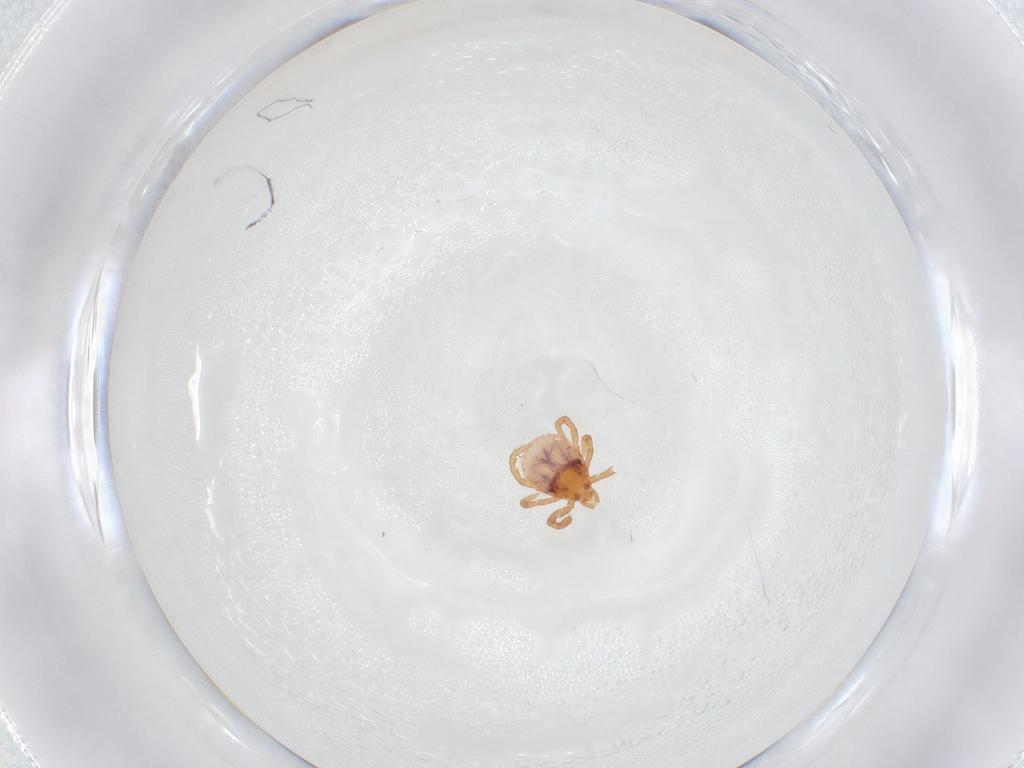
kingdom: Animalia
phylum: Arthropoda
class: Arachnida
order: Ixodida
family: Ixodidae
